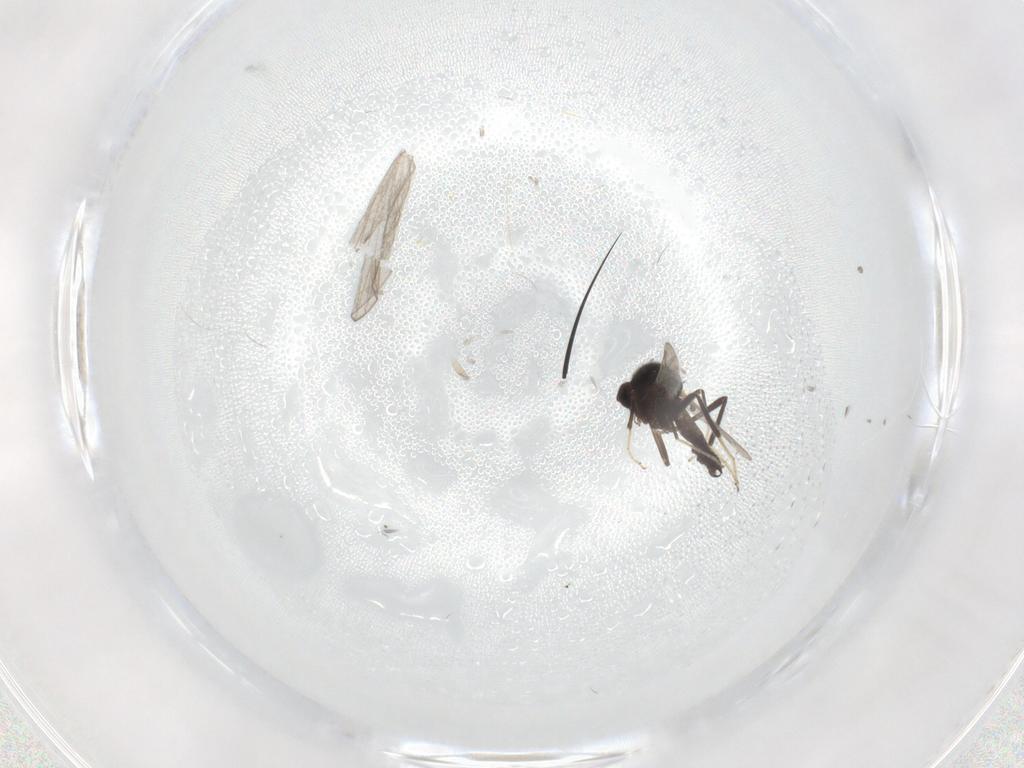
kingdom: Animalia
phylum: Arthropoda
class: Insecta
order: Diptera
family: Ceratopogonidae
